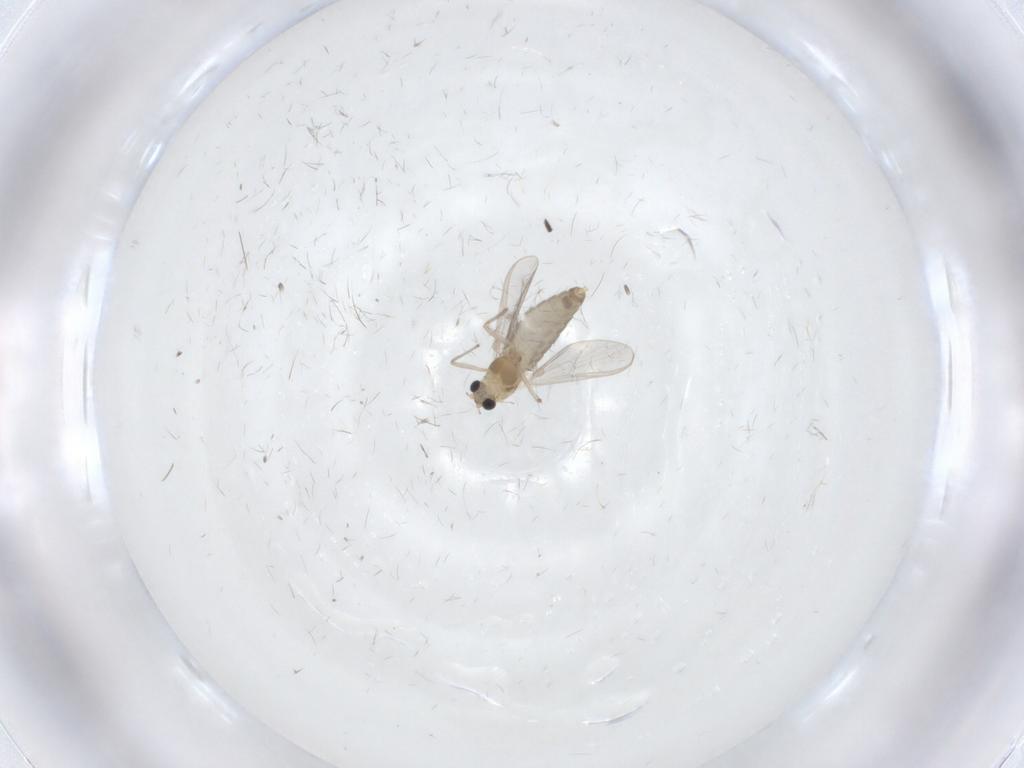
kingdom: Animalia
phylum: Arthropoda
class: Insecta
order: Diptera
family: Chironomidae
